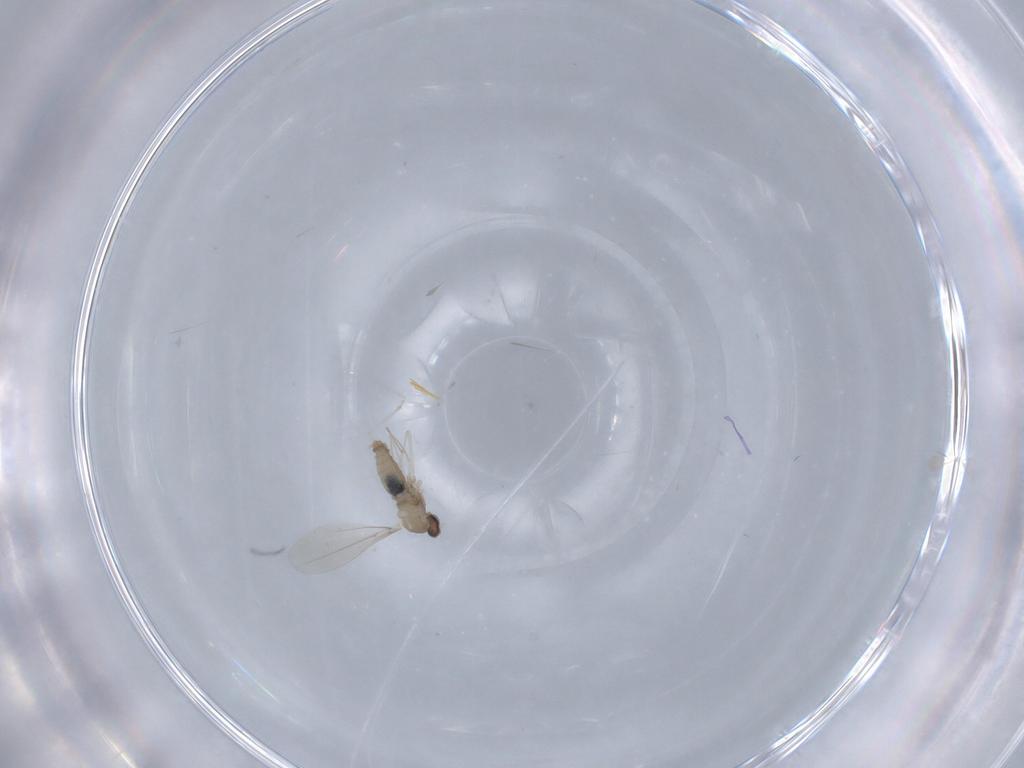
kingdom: Animalia
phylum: Arthropoda
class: Insecta
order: Diptera
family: Cecidomyiidae
